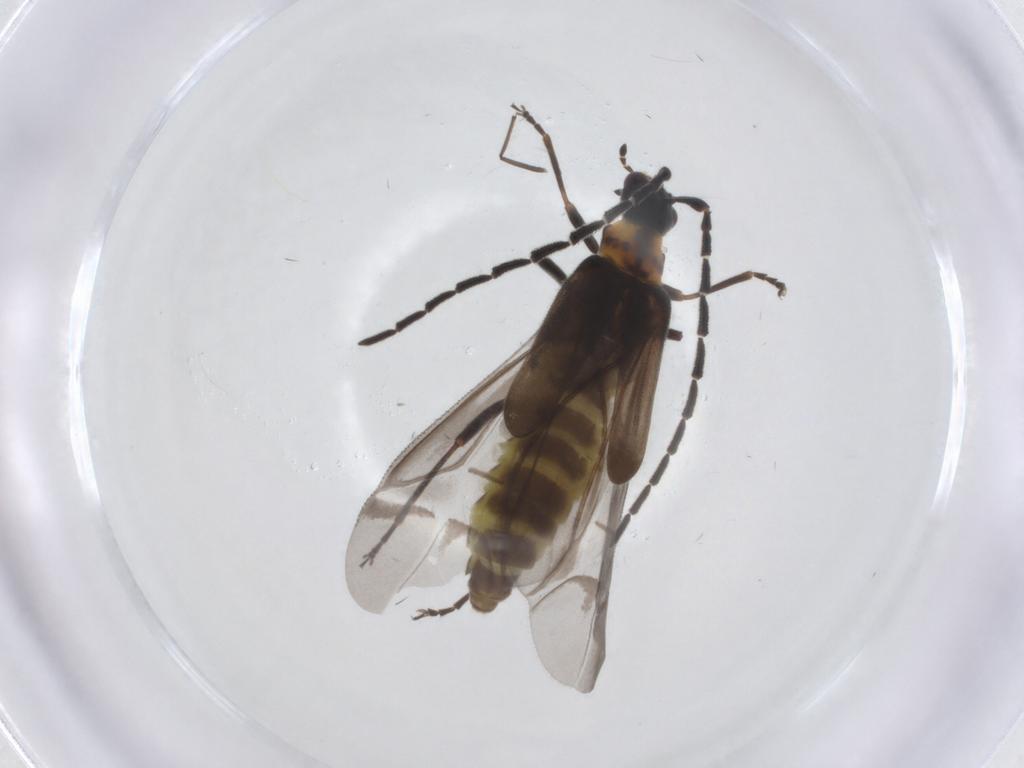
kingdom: Animalia
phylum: Arthropoda
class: Insecta
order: Coleoptera
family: Cantharidae
